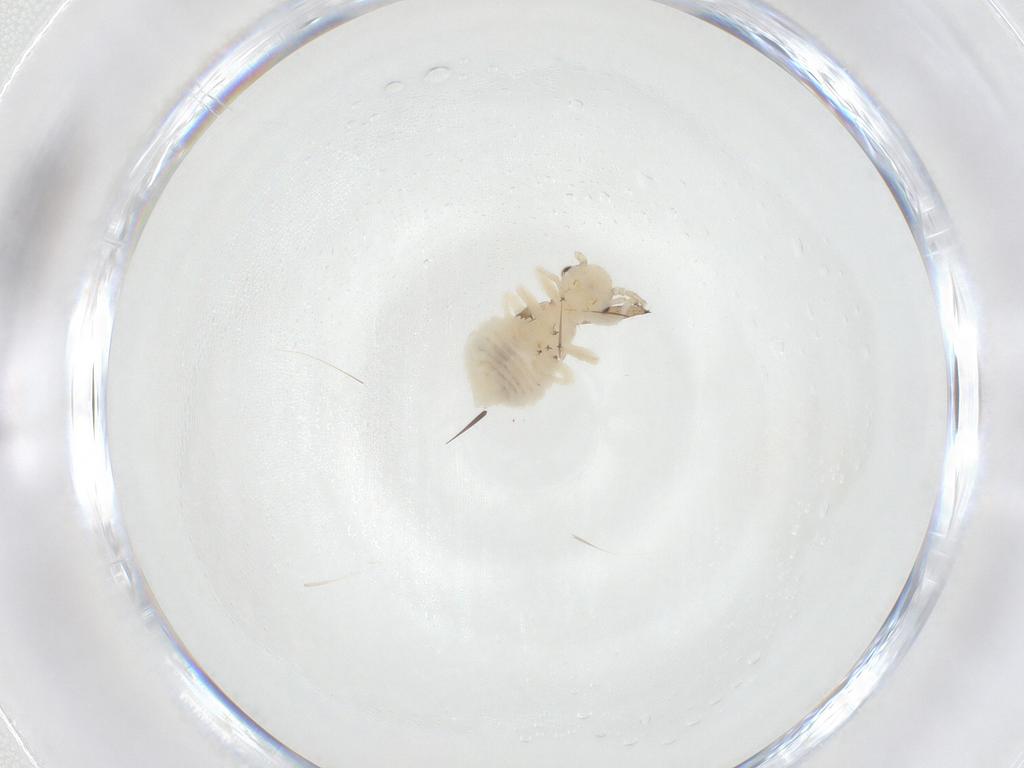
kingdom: Animalia
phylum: Arthropoda
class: Insecta
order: Psocodea
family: Amphipsocidae
